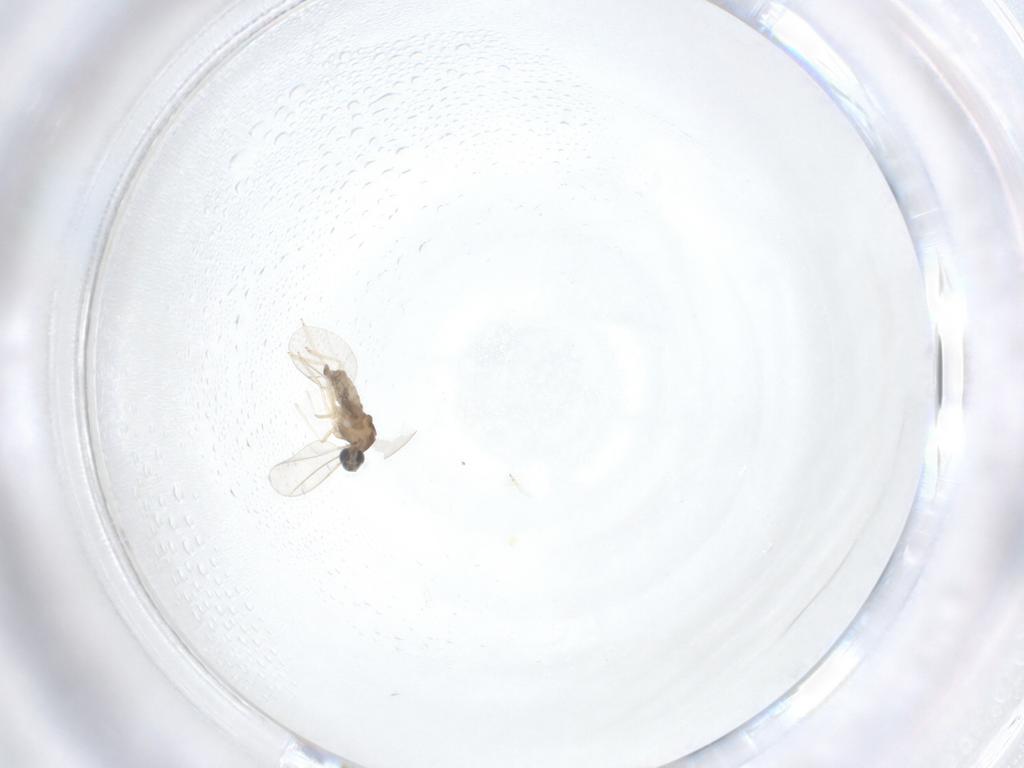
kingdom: Animalia
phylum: Arthropoda
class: Insecta
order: Diptera
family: Cecidomyiidae
